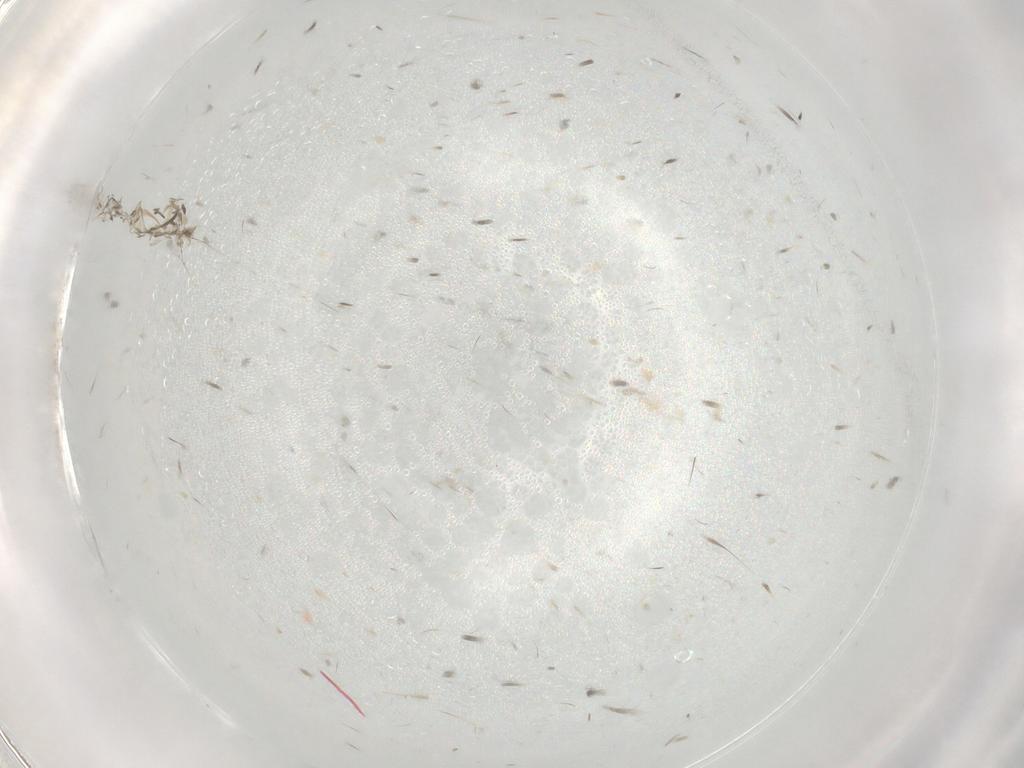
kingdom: Animalia
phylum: Arthropoda
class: Insecta
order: Hemiptera
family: Cixiidae
